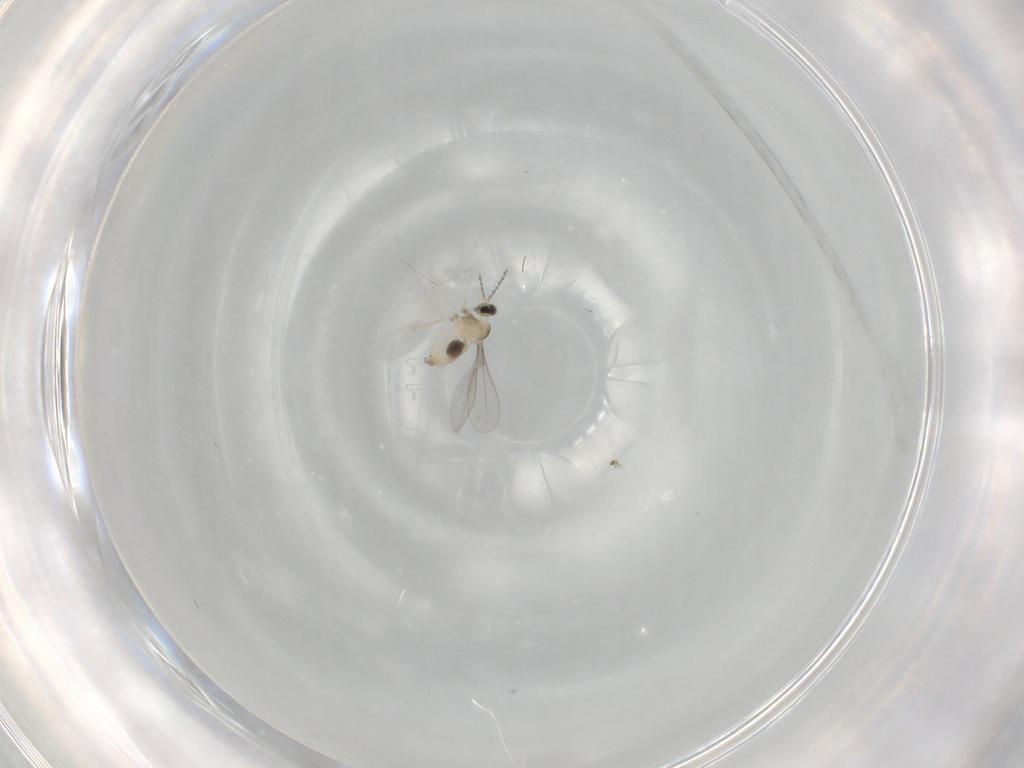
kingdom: Animalia
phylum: Arthropoda
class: Insecta
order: Diptera
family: Cecidomyiidae
